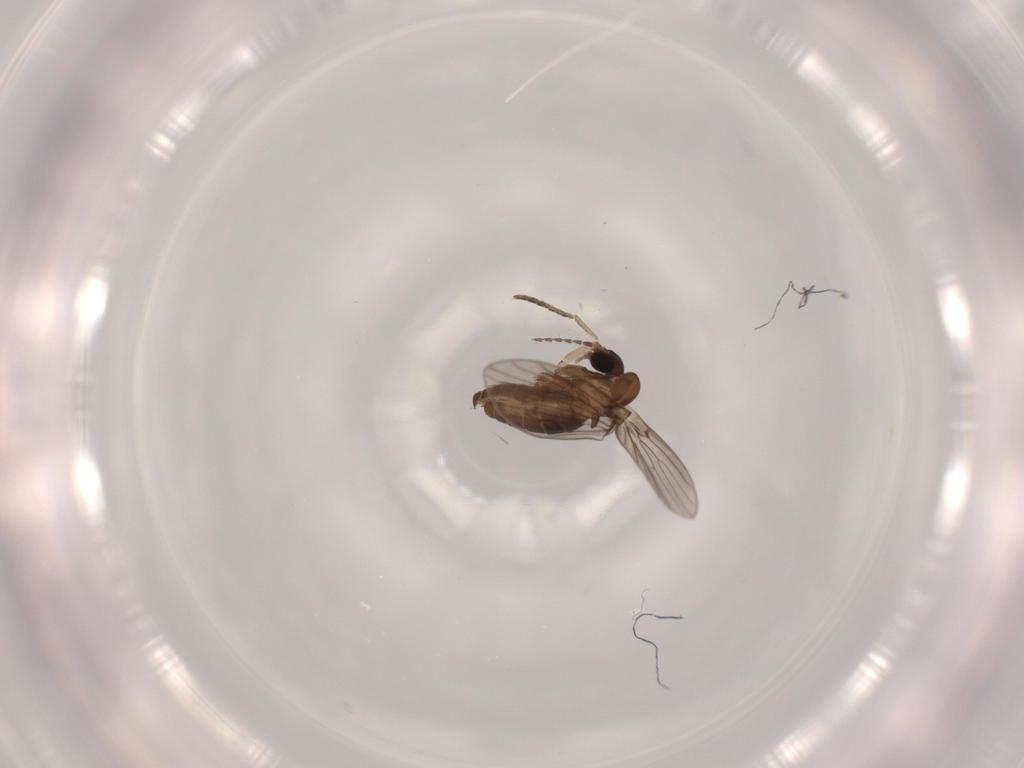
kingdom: Animalia
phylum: Arthropoda
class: Insecta
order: Diptera
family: Psychodidae
